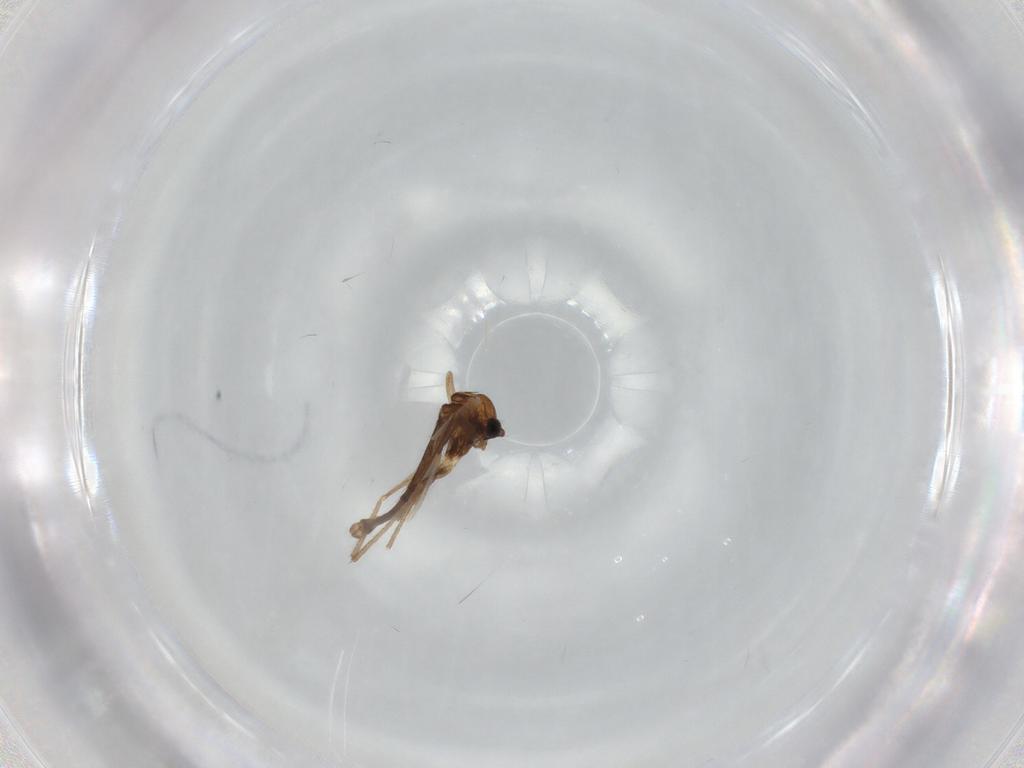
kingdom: Animalia
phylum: Arthropoda
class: Insecta
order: Diptera
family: Chironomidae
